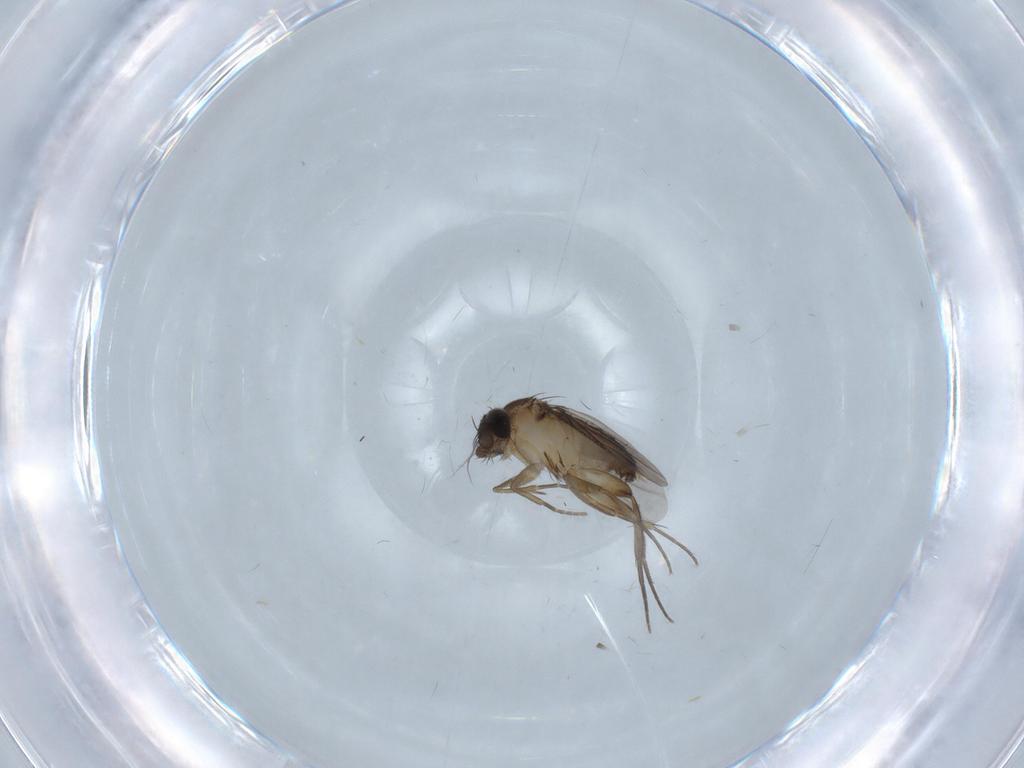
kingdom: Animalia
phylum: Arthropoda
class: Insecta
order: Diptera
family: Phoridae
